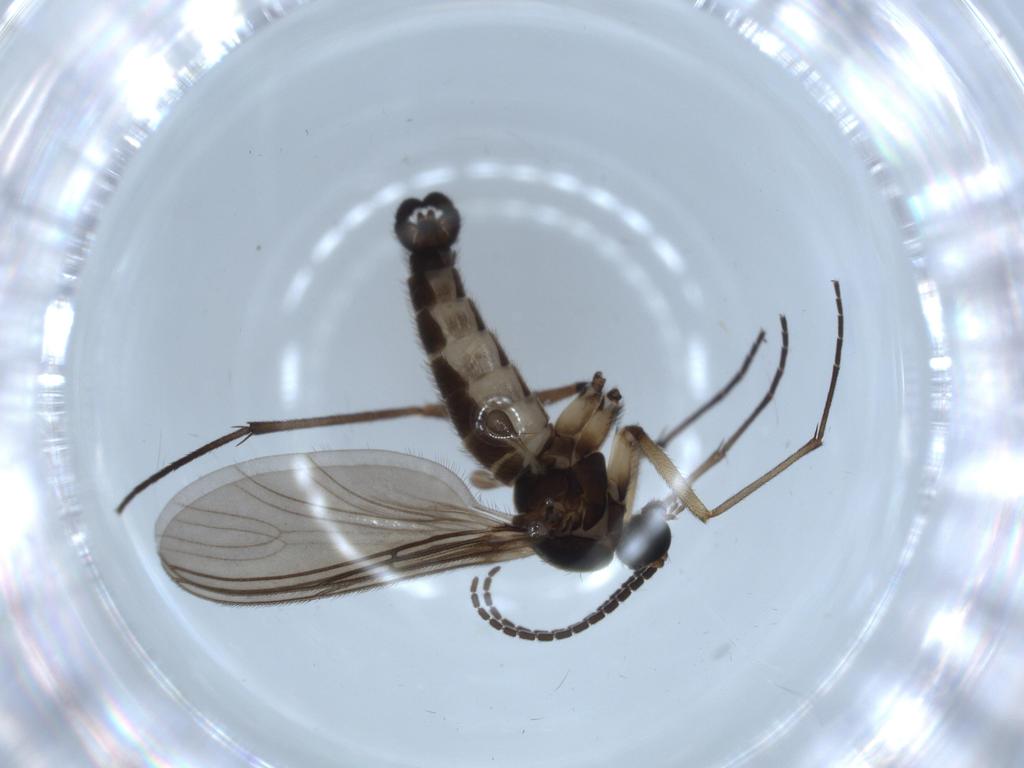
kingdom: Animalia
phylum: Arthropoda
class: Insecta
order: Diptera
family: Sciaridae
